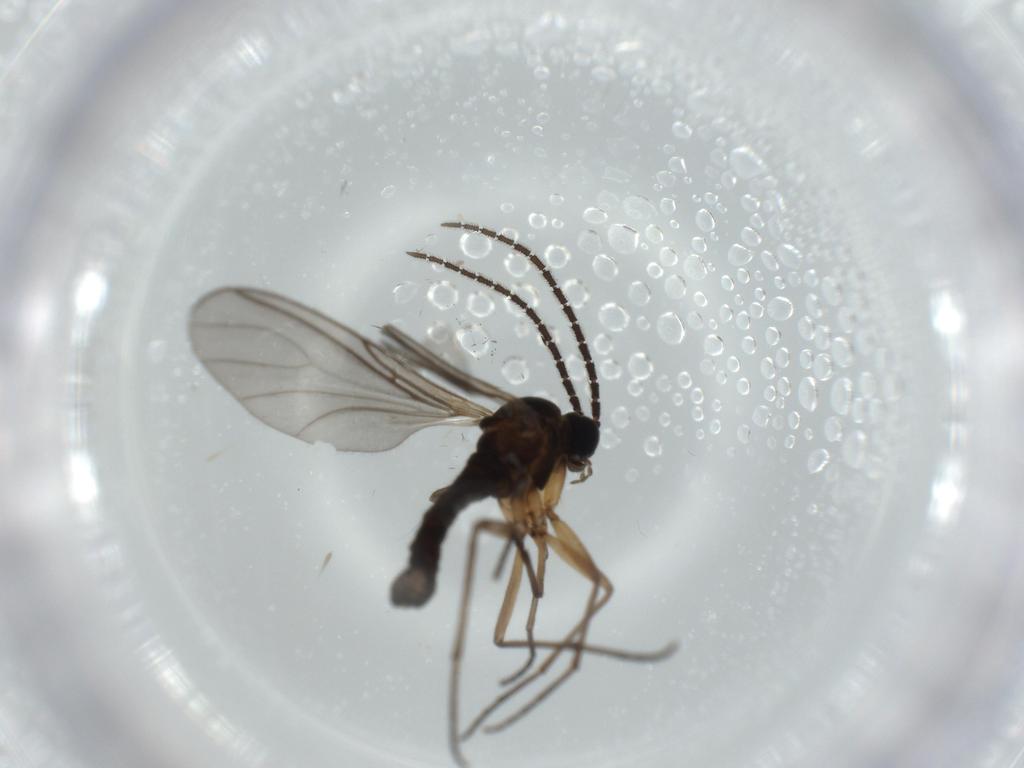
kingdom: Animalia
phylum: Arthropoda
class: Insecta
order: Diptera
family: Sciaridae
